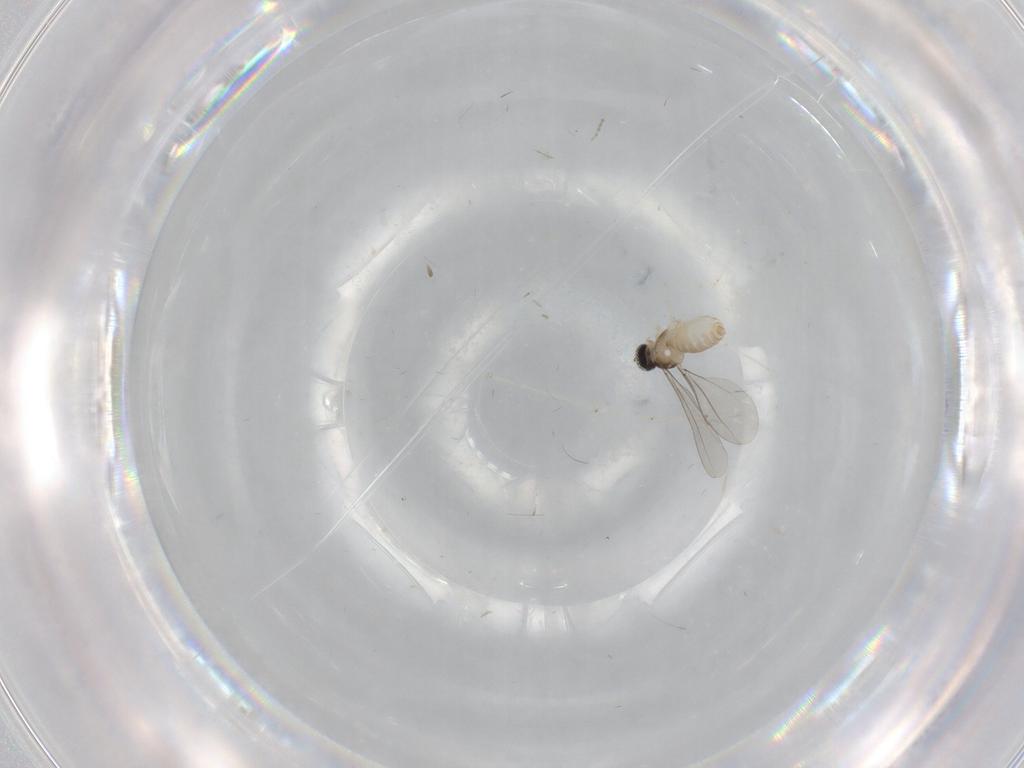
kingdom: Animalia
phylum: Arthropoda
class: Insecta
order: Diptera
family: Cecidomyiidae
